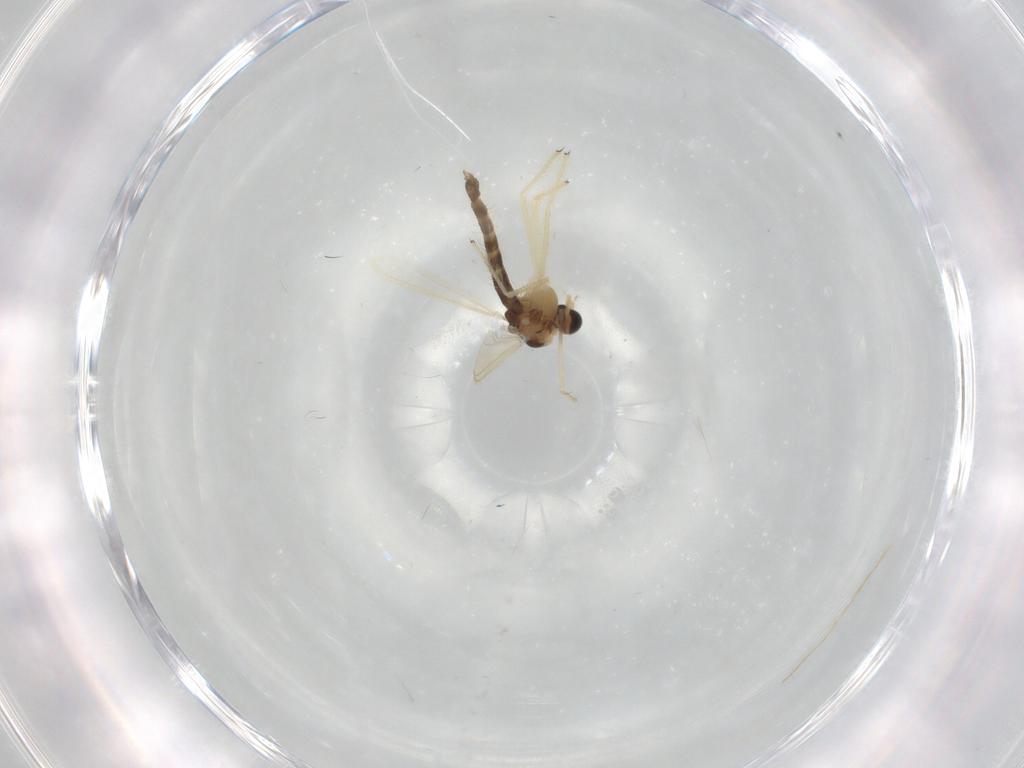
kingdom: Animalia
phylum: Arthropoda
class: Insecta
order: Diptera
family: Chironomidae
